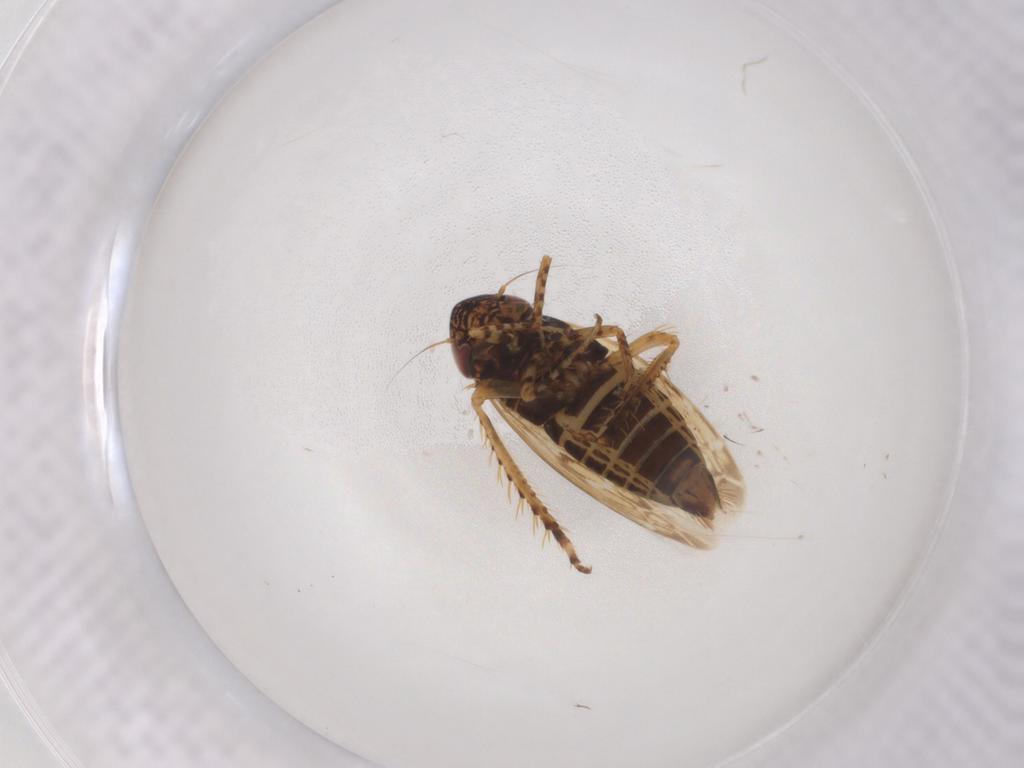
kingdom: Animalia
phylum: Arthropoda
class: Insecta
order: Hemiptera
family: Cicadellidae
